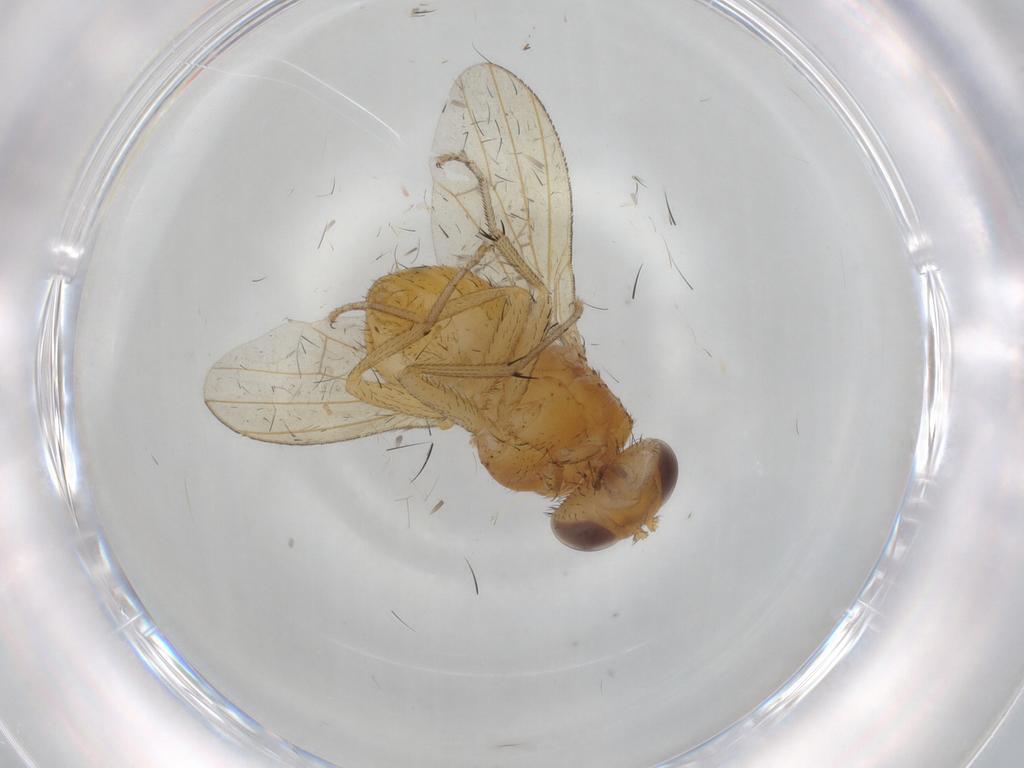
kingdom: Animalia
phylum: Arthropoda
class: Insecta
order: Diptera
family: Lauxaniidae
